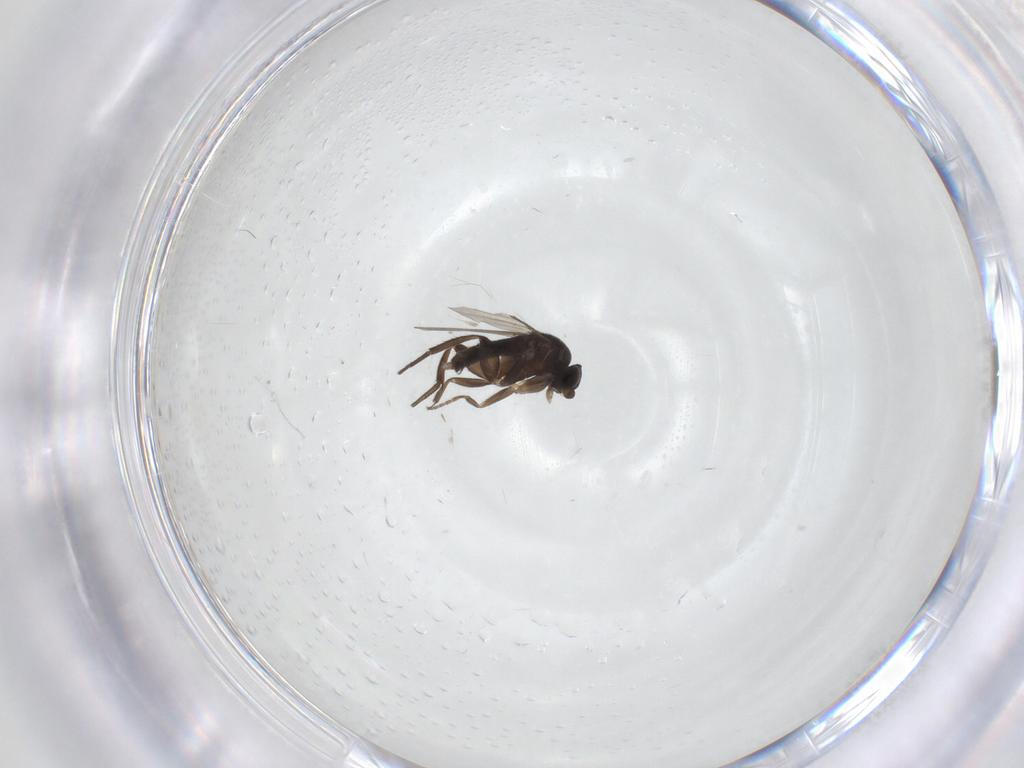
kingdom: Animalia
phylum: Arthropoda
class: Insecta
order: Diptera
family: Phoridae
